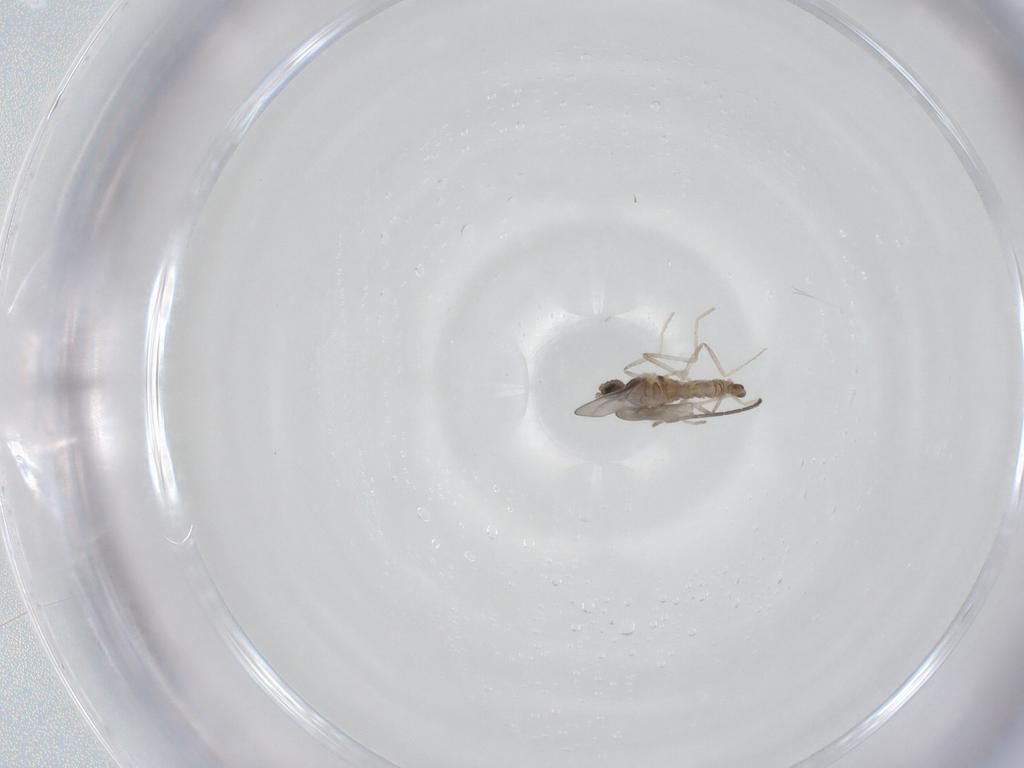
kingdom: Animalia
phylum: Arthropoda
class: Insecta
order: Diptera
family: Cecidomyiidae
